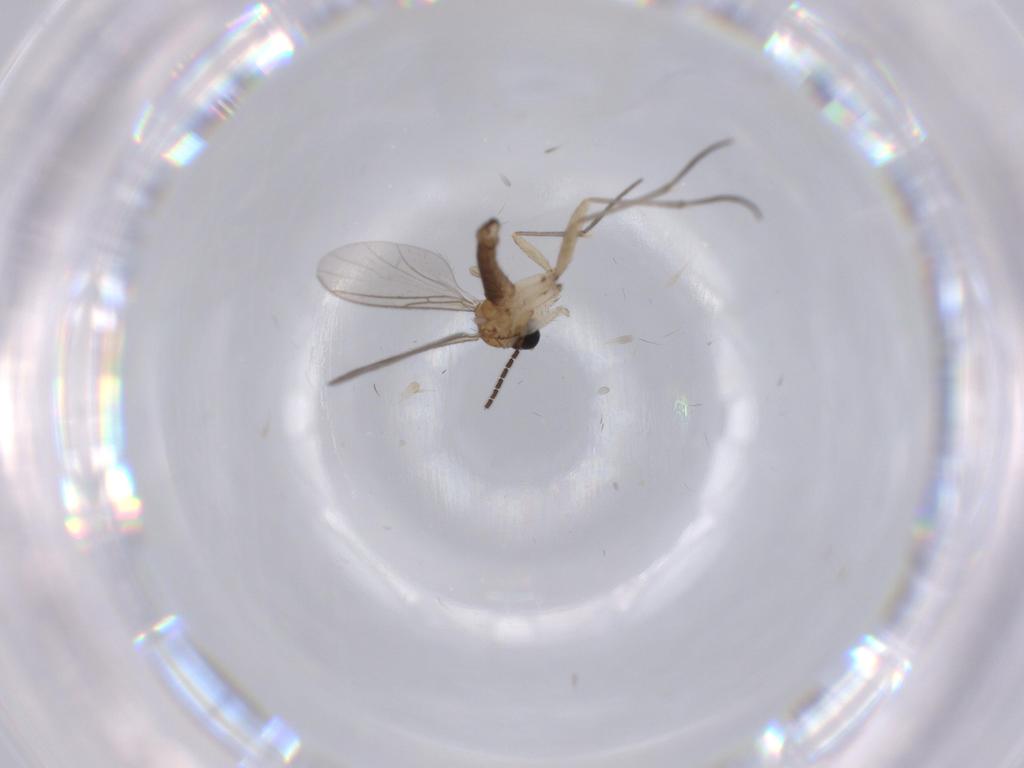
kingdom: Animalia
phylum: Arthropoda
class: Insecta
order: Diptera
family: Sciaridae
